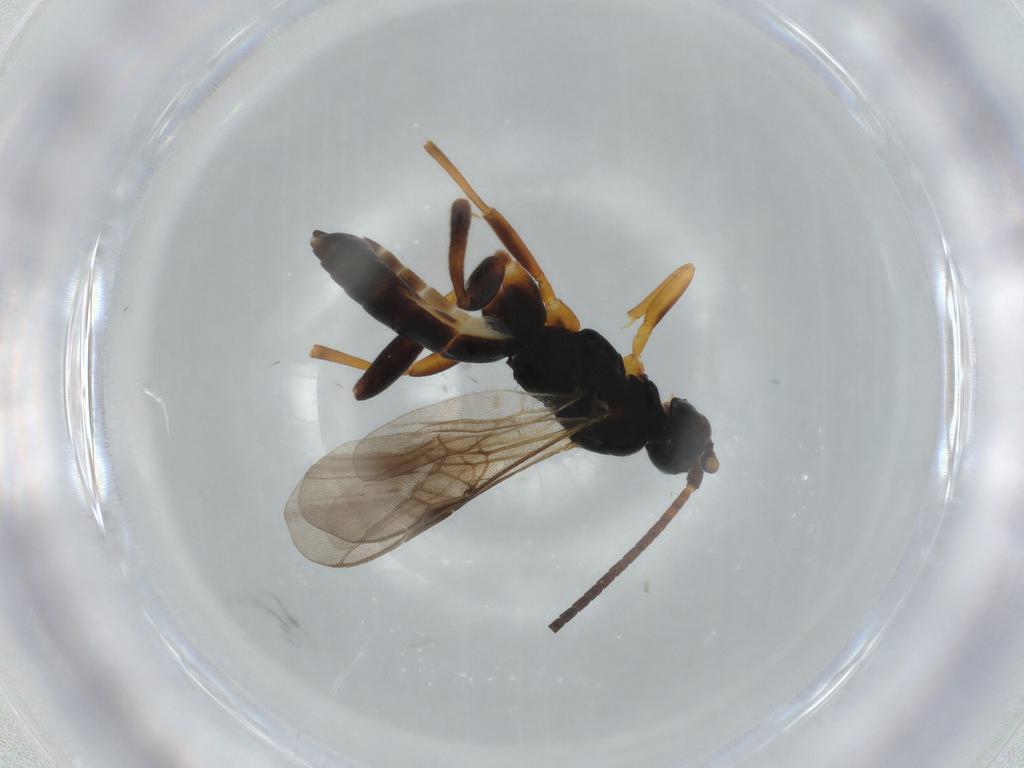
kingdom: Animalia
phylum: Arthropoda
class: Insecta
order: Hymenoptera
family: Braconidae
